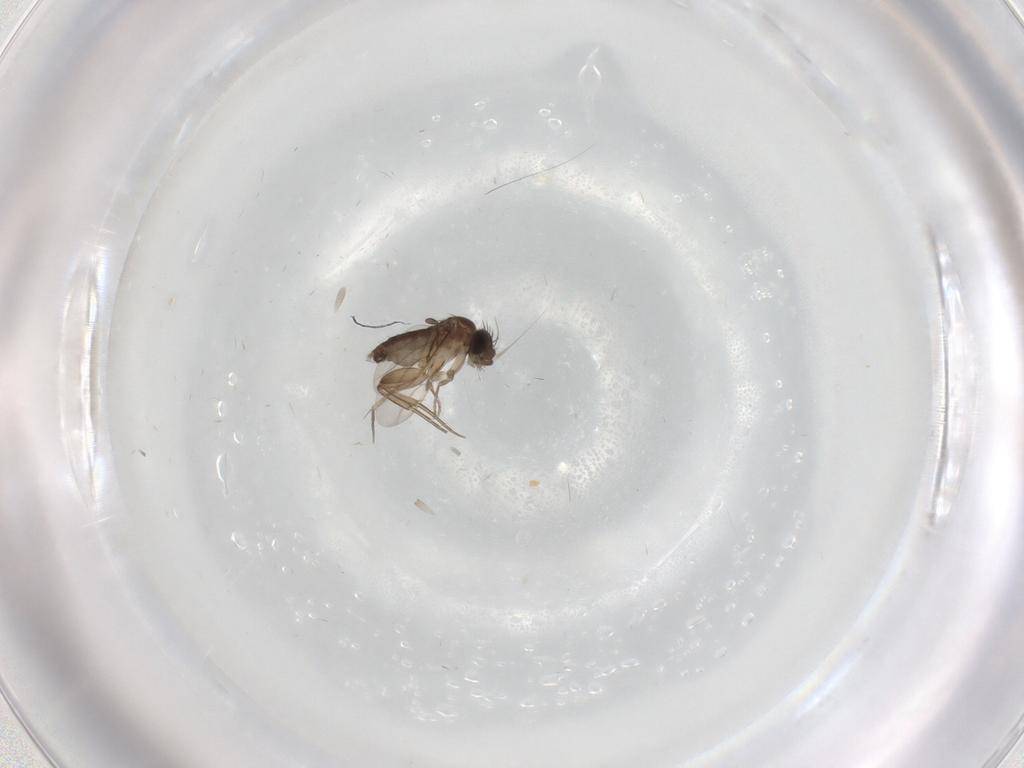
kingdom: Animalia
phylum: Arthropoda
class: Insecta
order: Diptera
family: Phoridae
